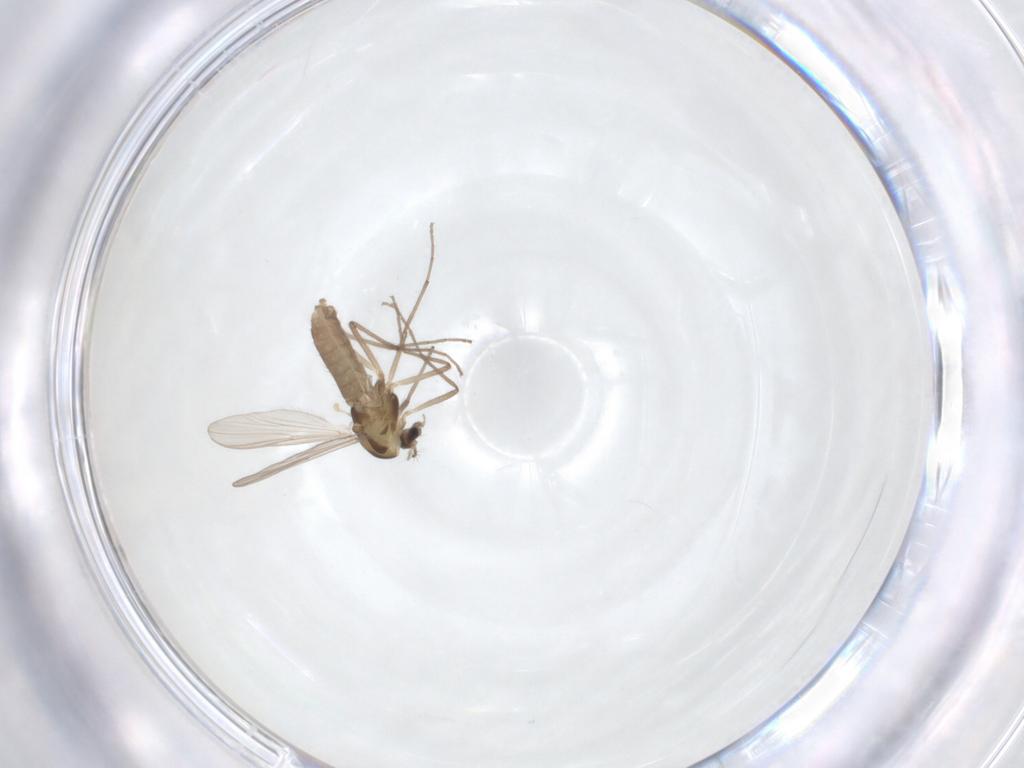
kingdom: Animalia
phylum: Arthropoda
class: Insecta
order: Diptera
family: Chironomidae
